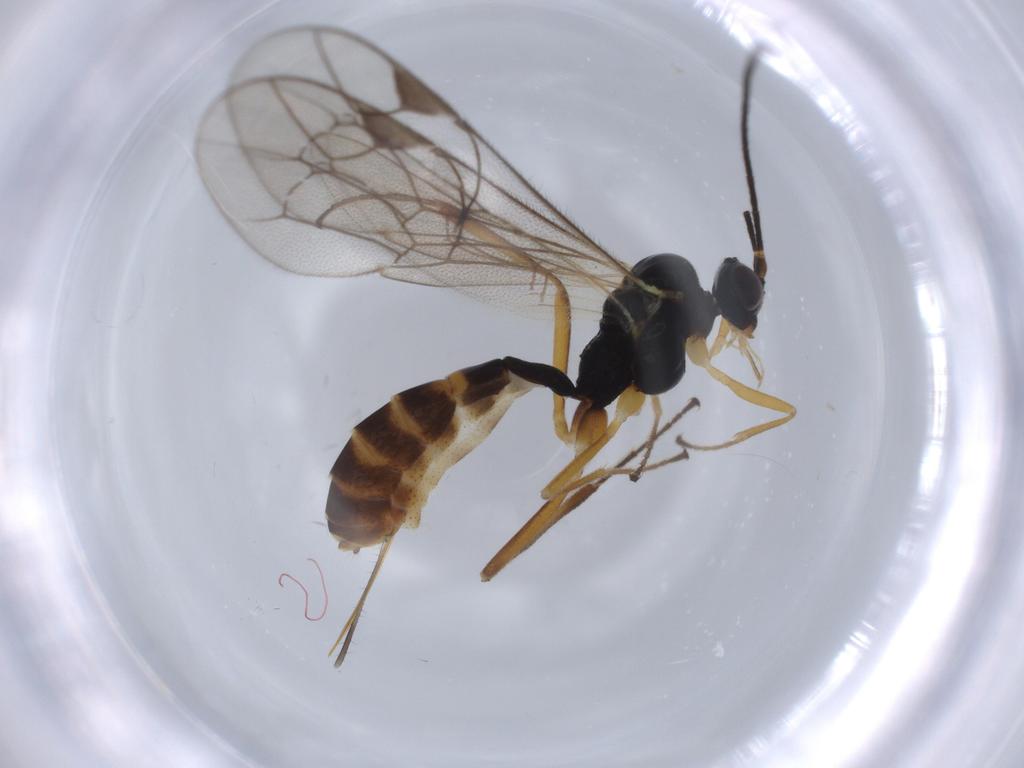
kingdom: Animalia
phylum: Arthropoda
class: Insecta
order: Hymenoptera
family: Ichneumonidae
